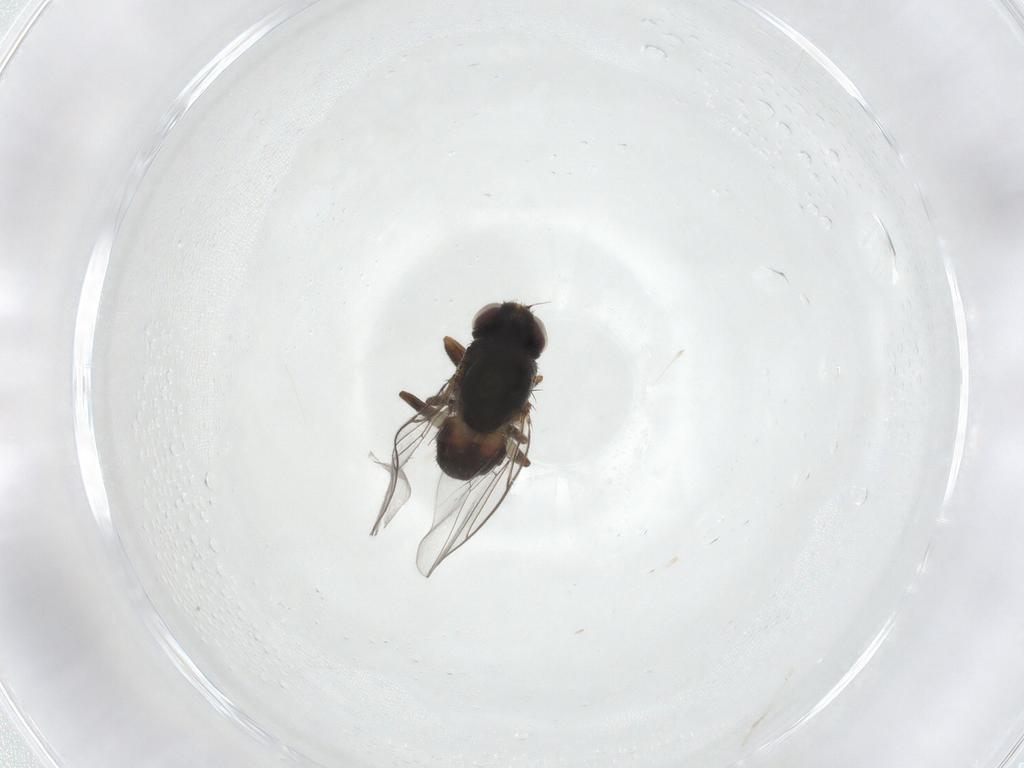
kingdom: Animalia
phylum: Arthropoda
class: Insecta
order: Diptera
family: Chloropidae
